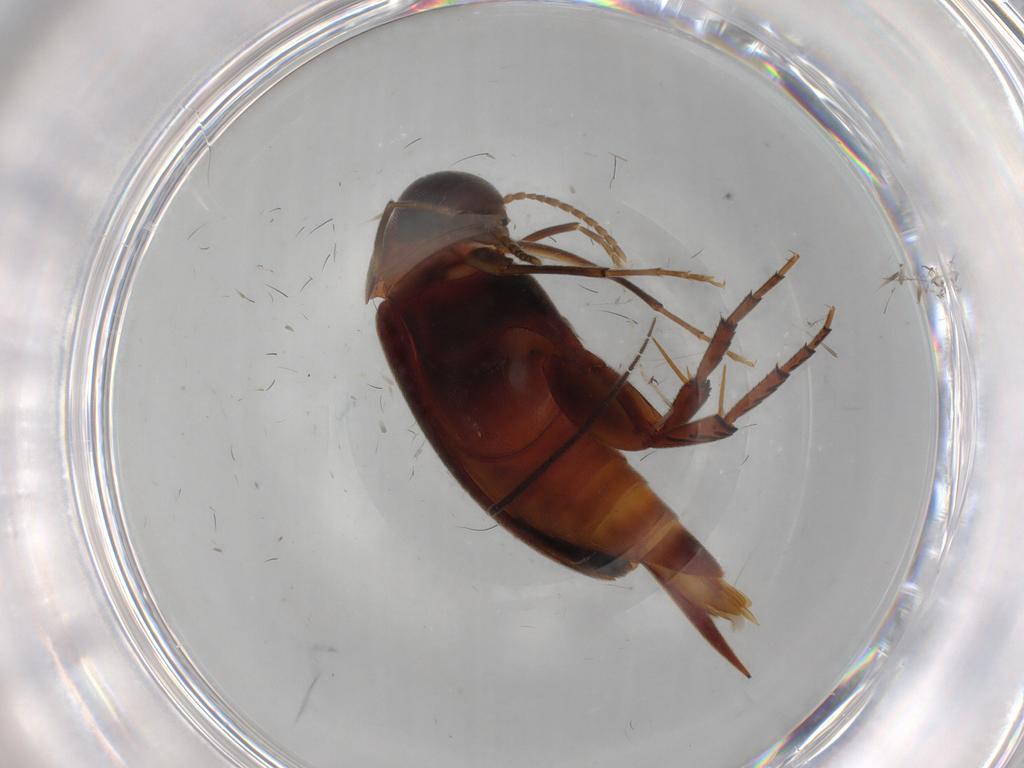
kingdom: Animalia
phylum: Arthropoda
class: Insecta
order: Coleoptera
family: Mordellidae
